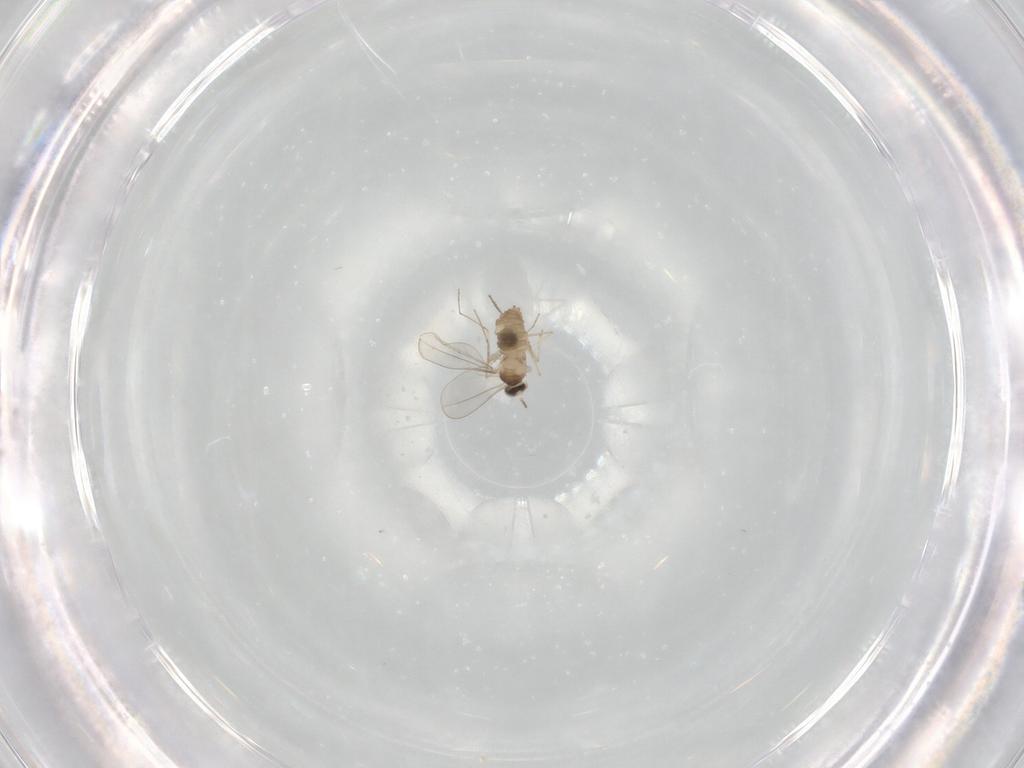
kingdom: Animalia
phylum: Arthropoda
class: Insecta
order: Diptera
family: Cecidomyiidae
